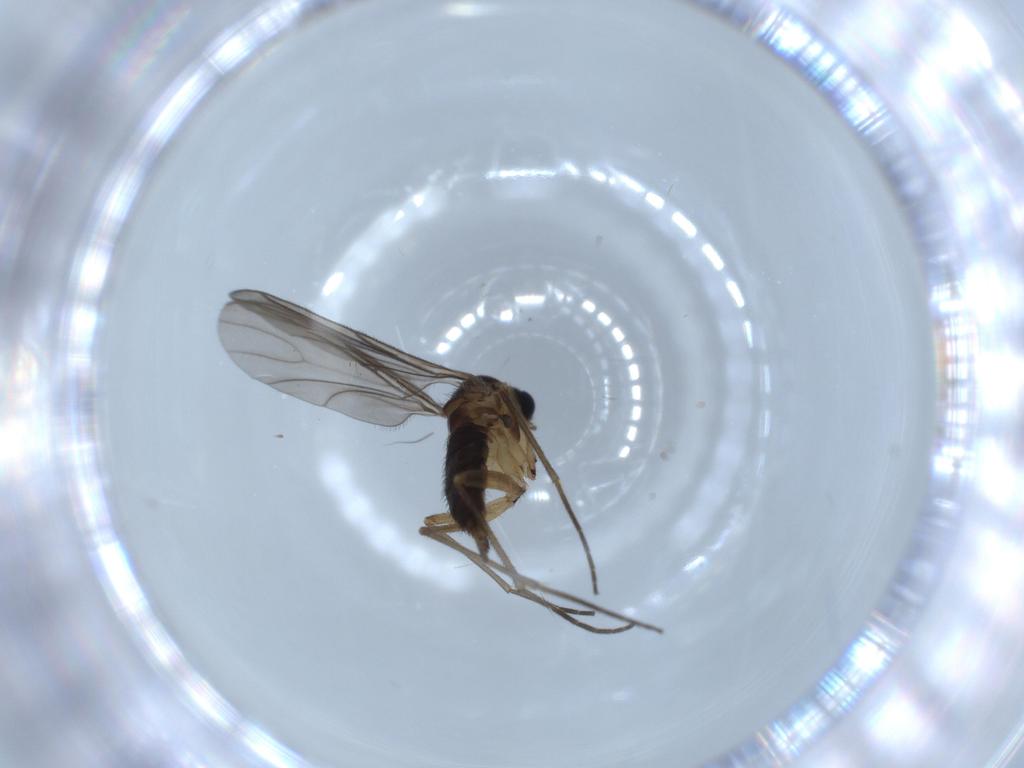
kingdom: Animalia
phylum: Arthropoda
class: Insecta
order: Diptera
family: Sciaridae
